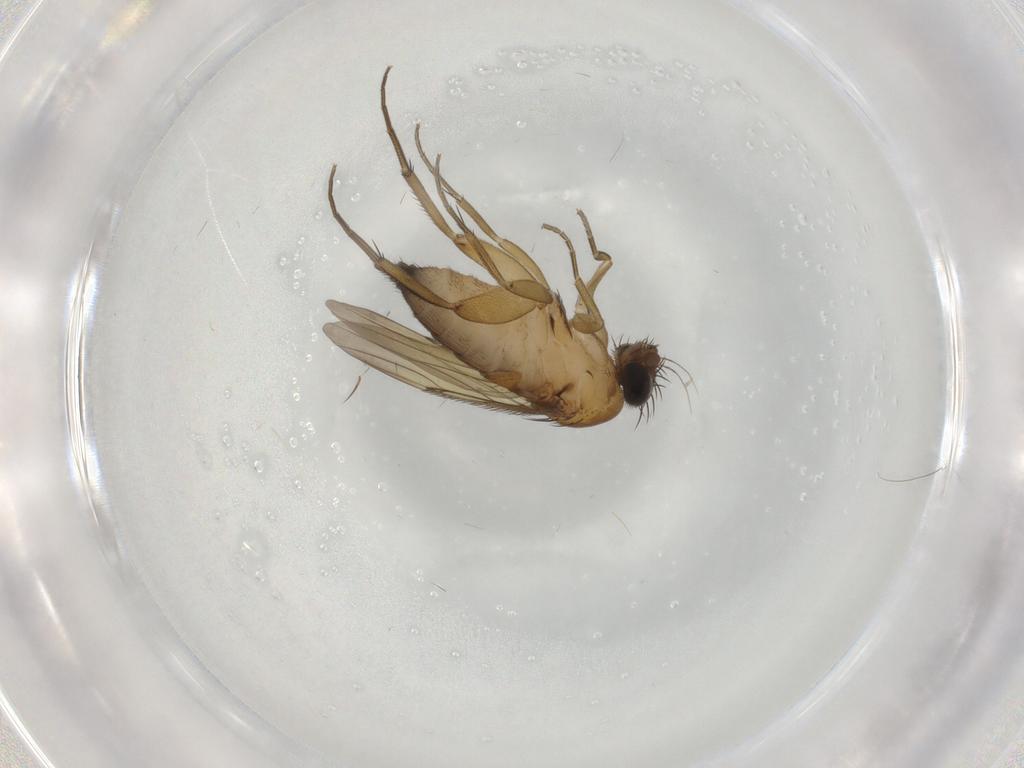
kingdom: Animalia
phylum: Arthropoda
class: Insecta
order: Diptera
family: Phoridae
